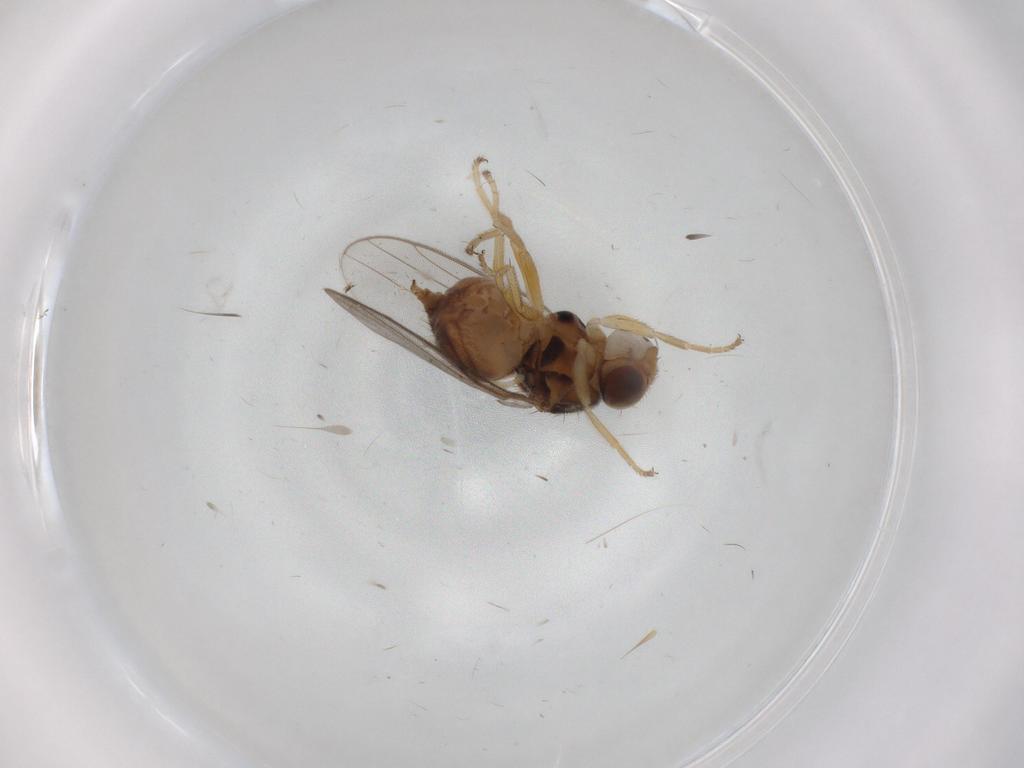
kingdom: Animalia
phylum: Arthropoda
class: Insecta
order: Diptera
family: Chloropidae
